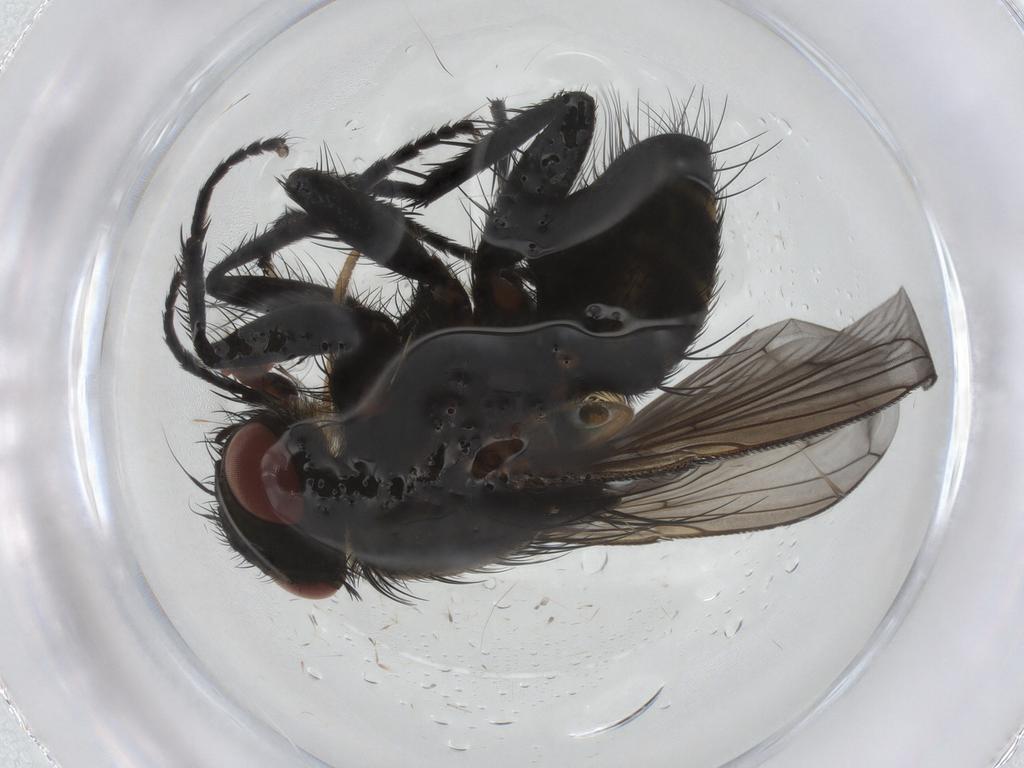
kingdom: Animalia
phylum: Arthropoda
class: Insecta
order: Diptera
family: Tachinidae
